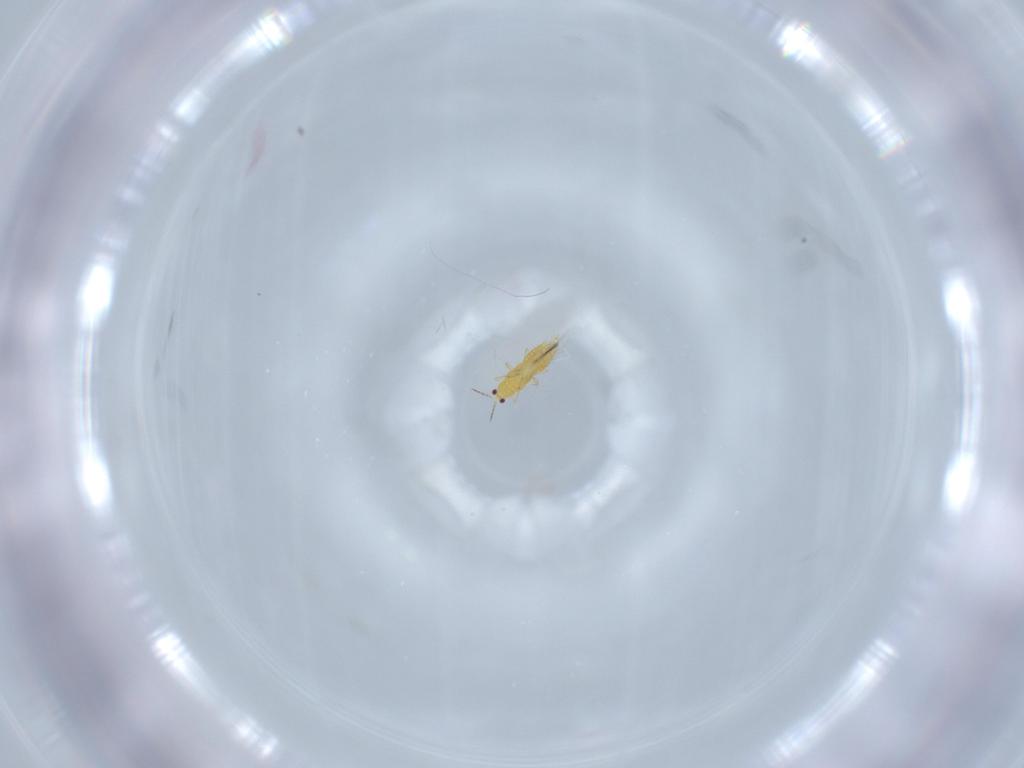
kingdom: Animalia
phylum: Arthropoda
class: Insecta
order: Thysanoptera
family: Thripidae
